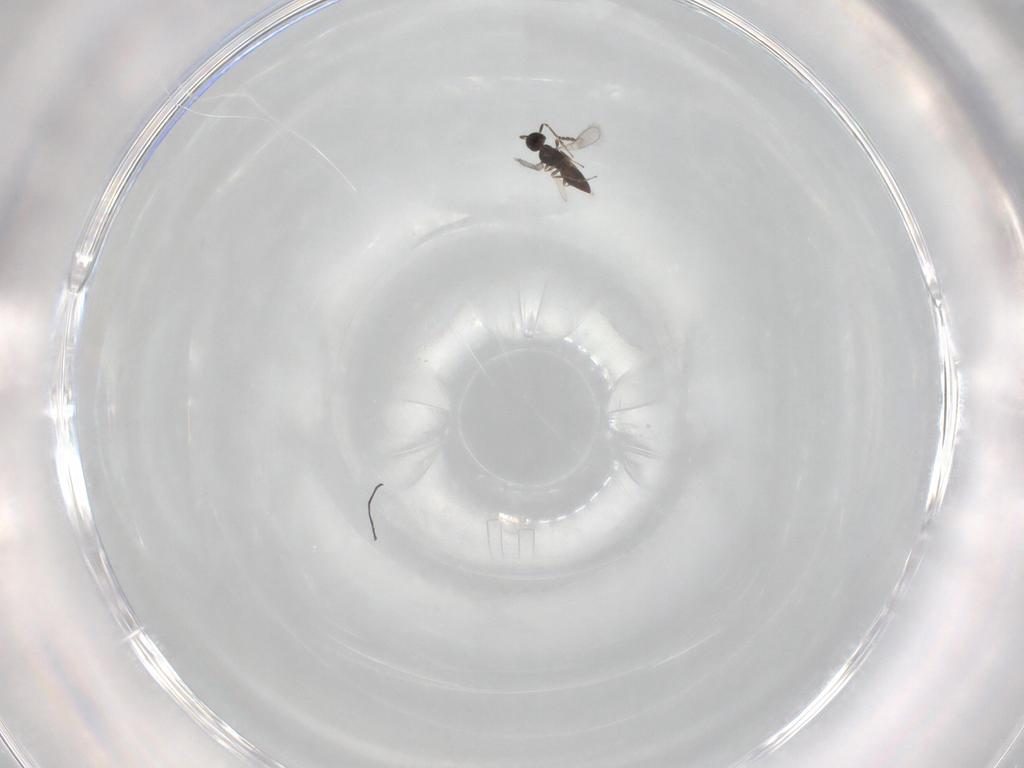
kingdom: Animalia
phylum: Arthropoda
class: Insecta
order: Hymenoptera
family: Scelionidae
